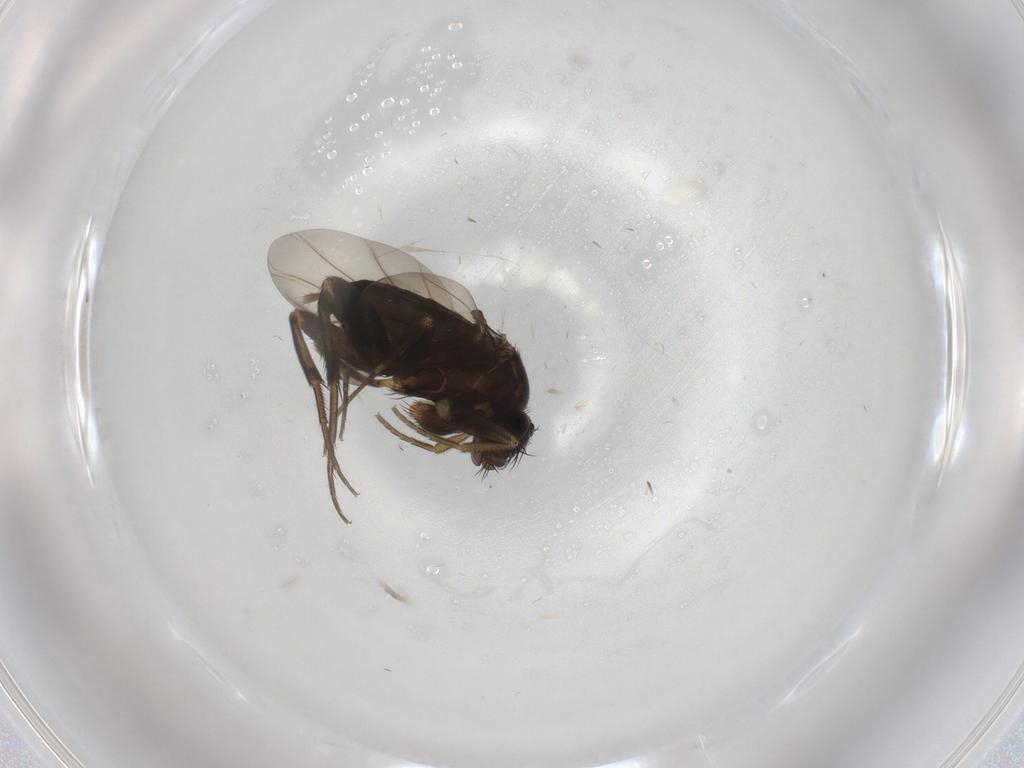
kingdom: Animalia
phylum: Arthropoda
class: Insecta
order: Diptera
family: Phoridae
